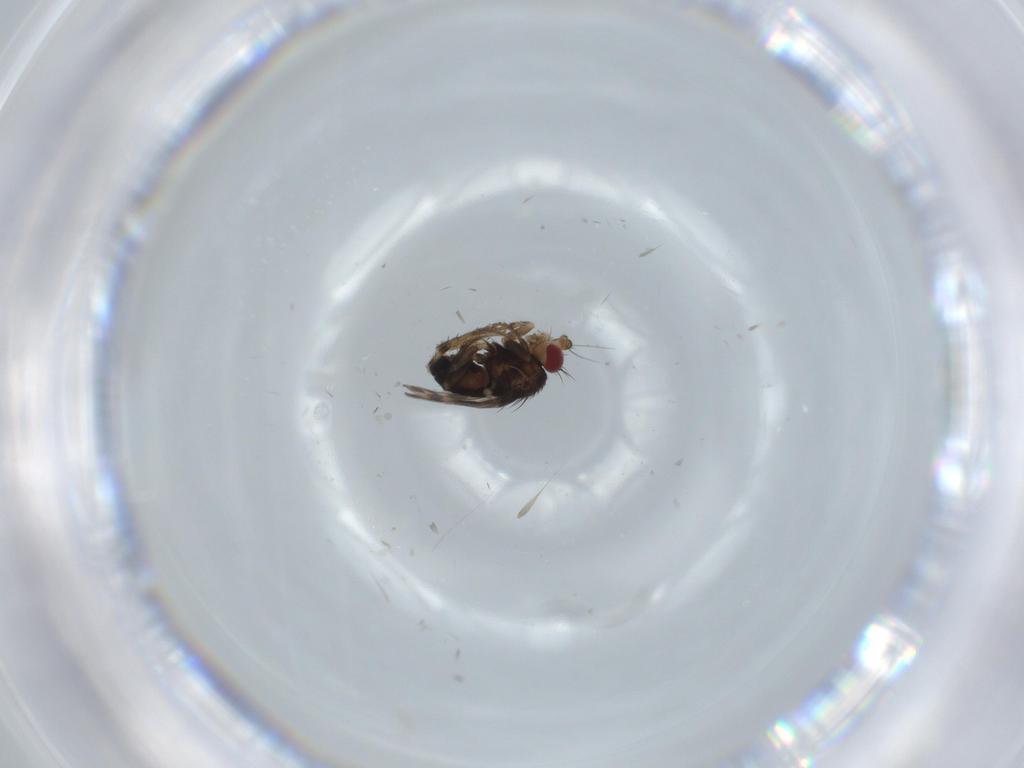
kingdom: Animalia
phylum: Arthropoda
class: Insecta
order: Diptera
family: Sphaeroceridae
